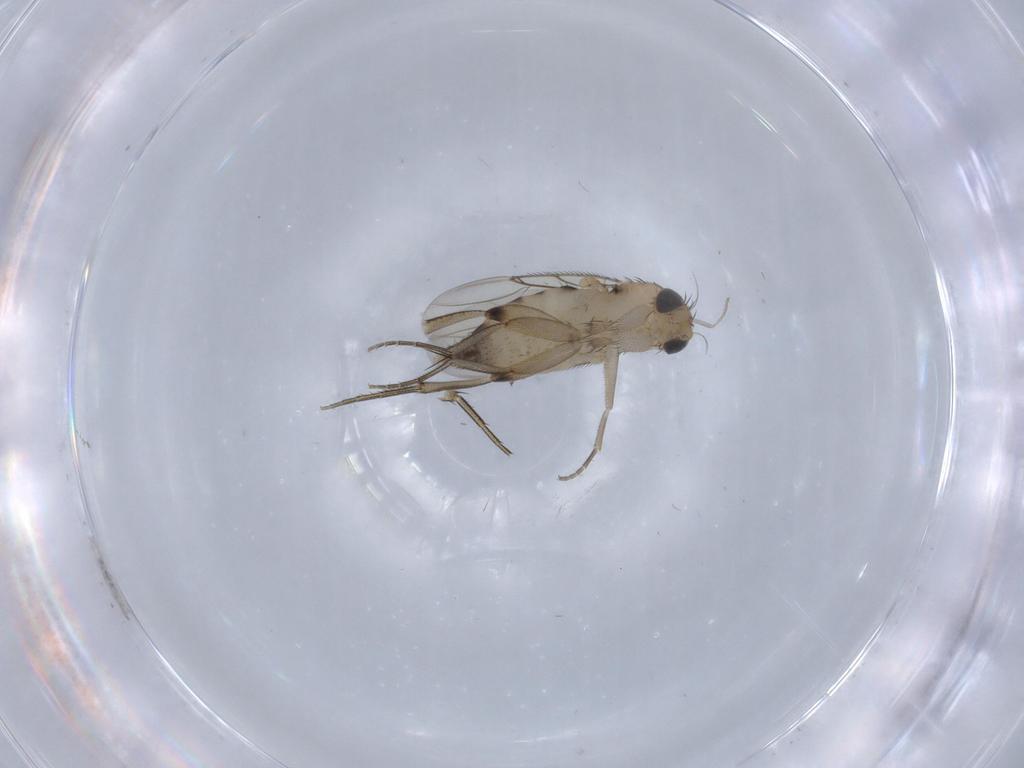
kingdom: Animalia
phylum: Arthropoda
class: Insecta
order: Diptera
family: Phoridae
